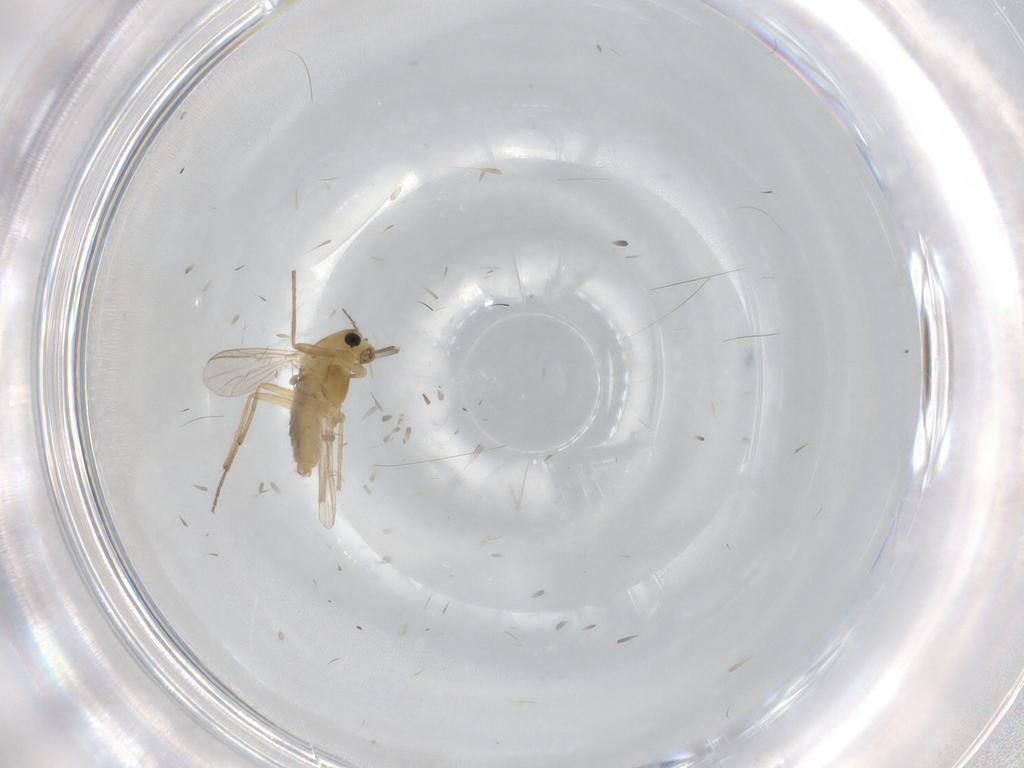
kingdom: Animalia
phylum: Arthropoda
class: Insecta
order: Diptera
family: Chironomidae
